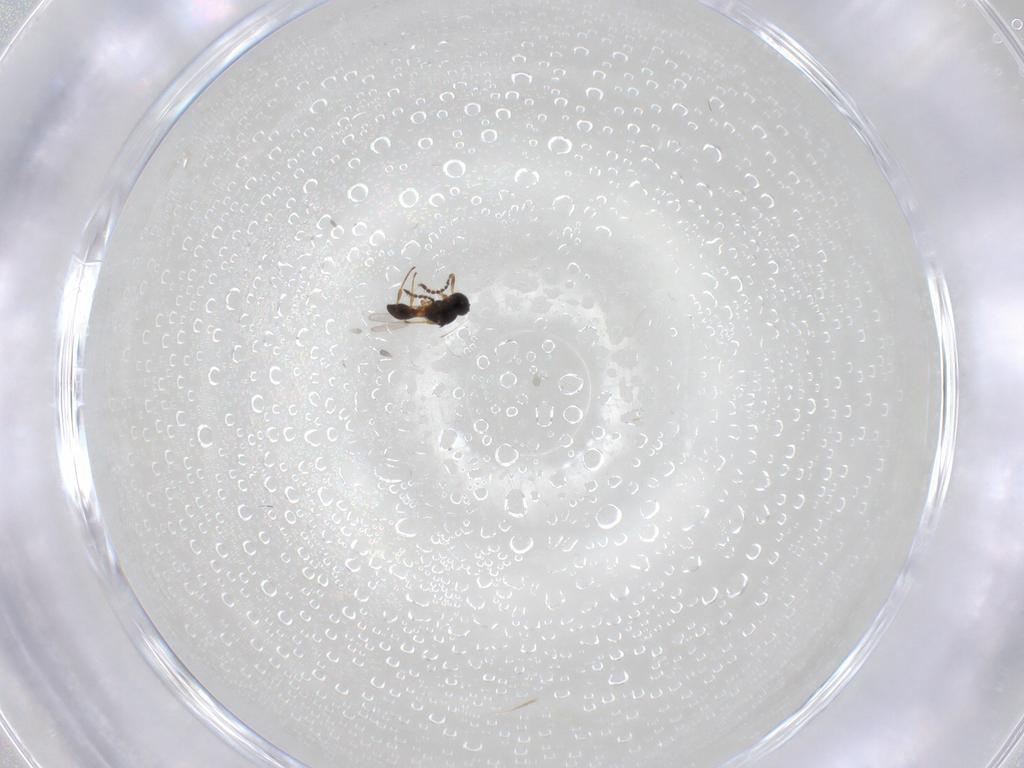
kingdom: Animalia
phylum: Arthropoda
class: Insecta
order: Hymenoptera
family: Platygastridae
